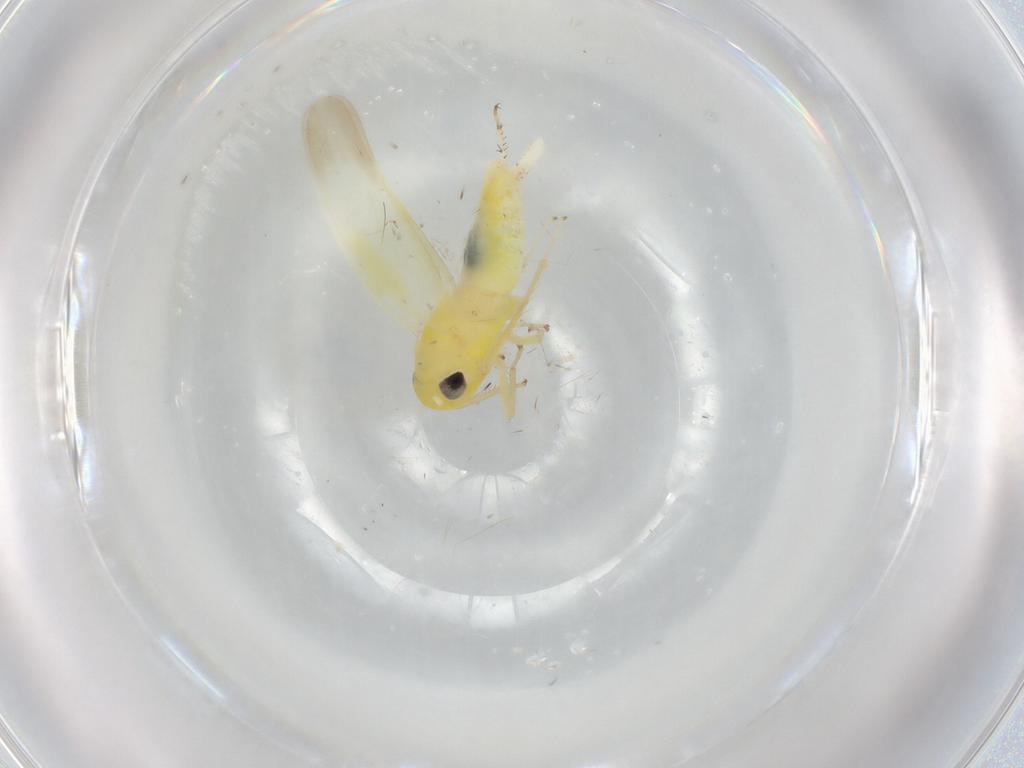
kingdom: Animalia
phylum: Arthropoda
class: Insecta
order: Hemiptera
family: Cicadellidae
